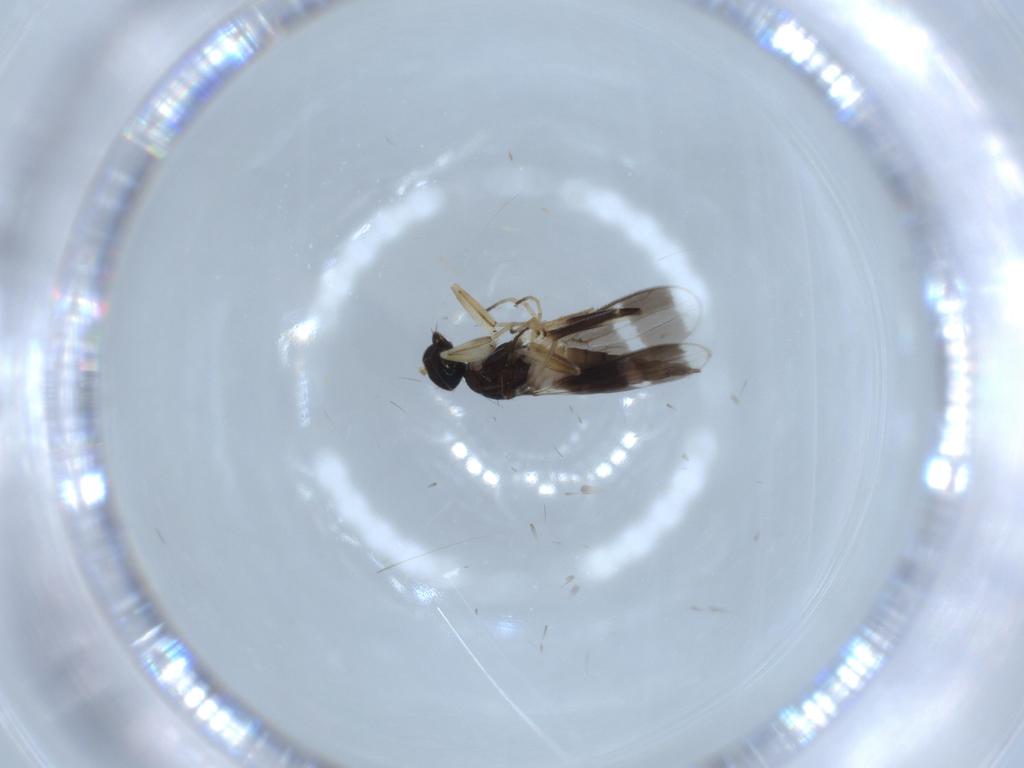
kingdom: Animalia
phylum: Arthropoda
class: Insecta
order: Diptera
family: Hybotidae
